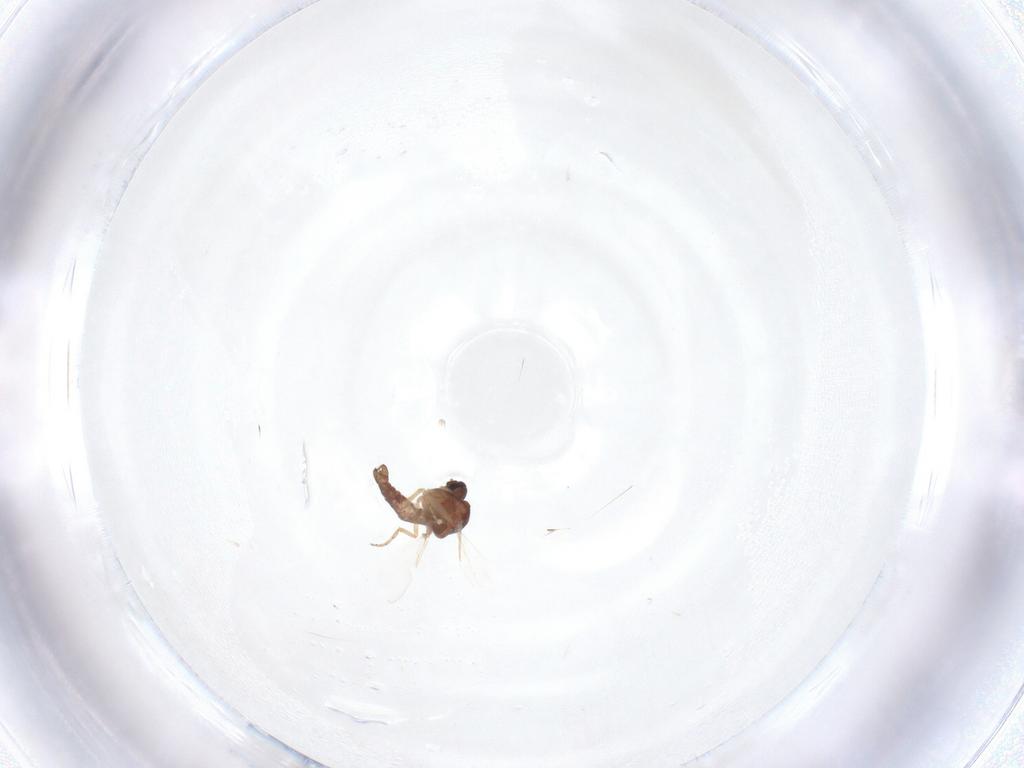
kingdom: Animalia
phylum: Arthropoda
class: Insecta
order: Diptera
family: Ceratopogonidae
